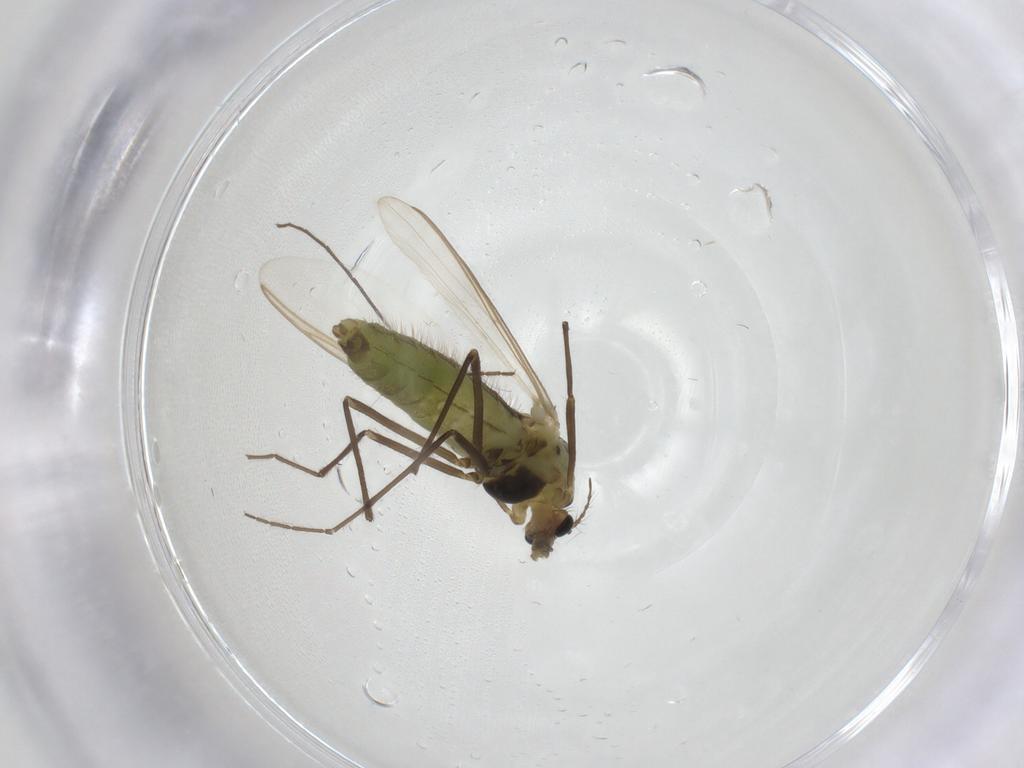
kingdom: Animalia
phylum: Arthropoda
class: Insecta
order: Diptera
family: Chironomidae
